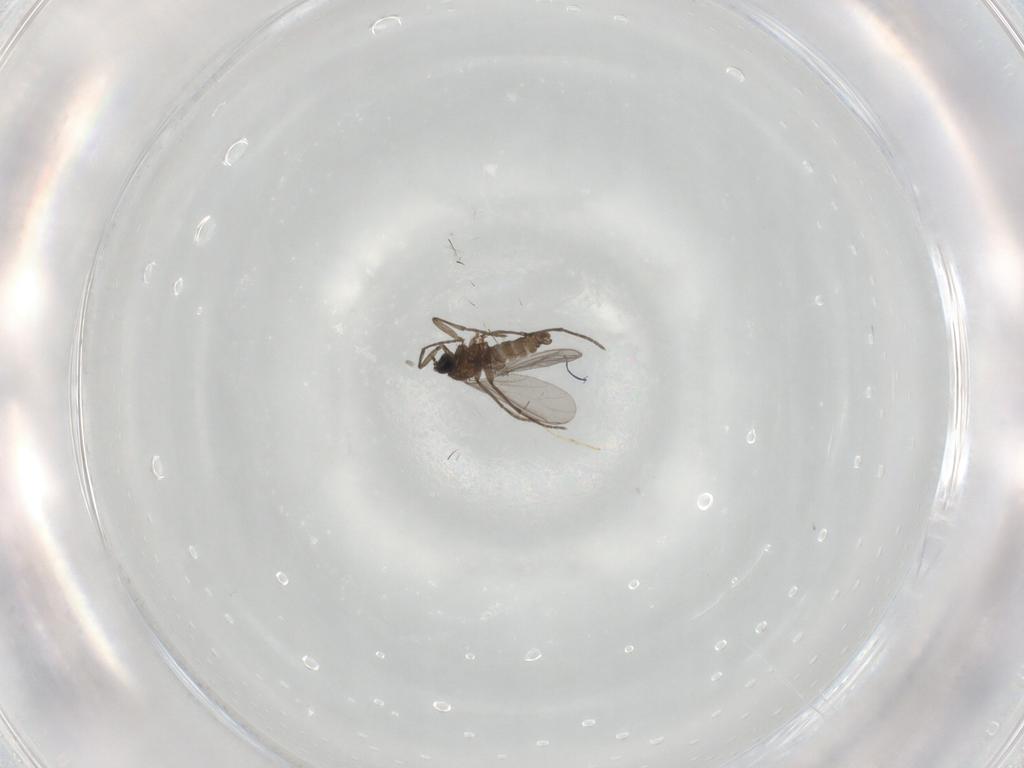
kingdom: Animalia
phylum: Arthropoda
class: Insecta
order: Diptera
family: Sciaridae
